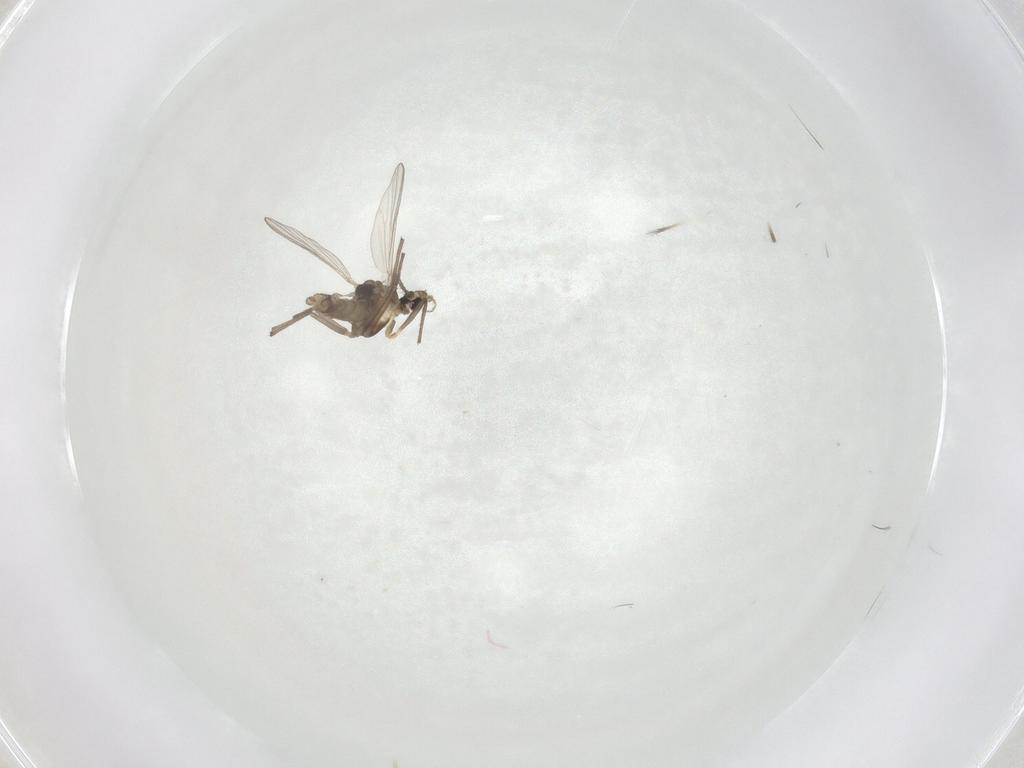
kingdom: Animalia
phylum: Arthropoda
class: Insecta
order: Diptera
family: Chironomidae
